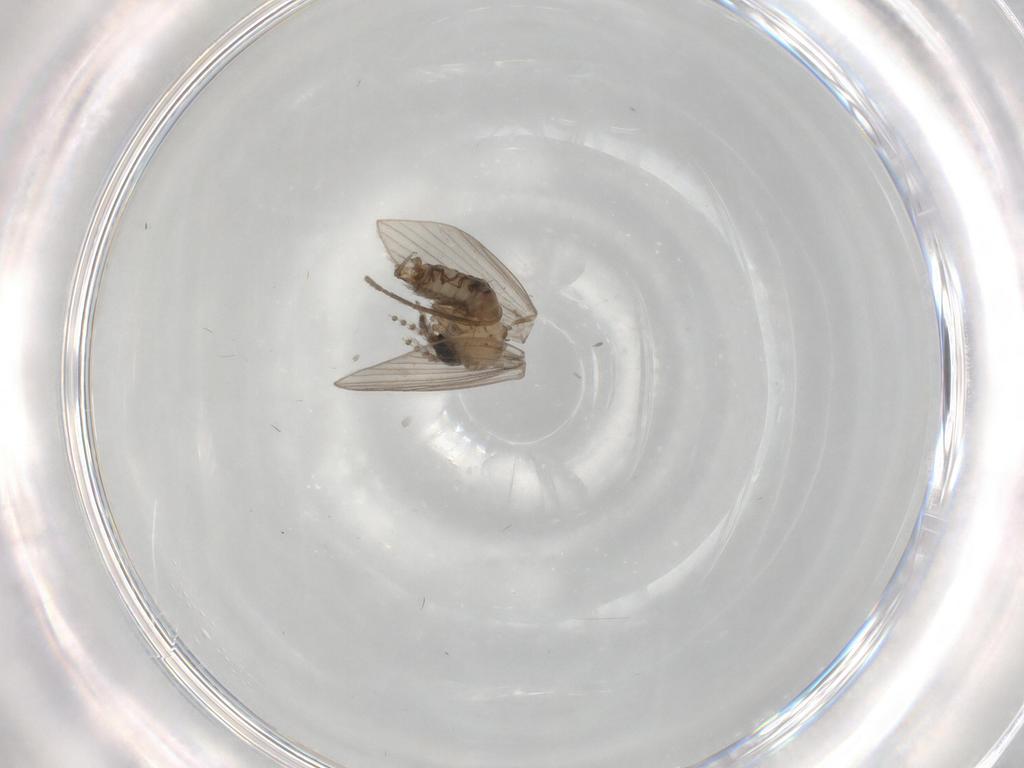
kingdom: Animalia
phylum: Arthropoda
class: Insecta
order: Diptera
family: Psychodidae
